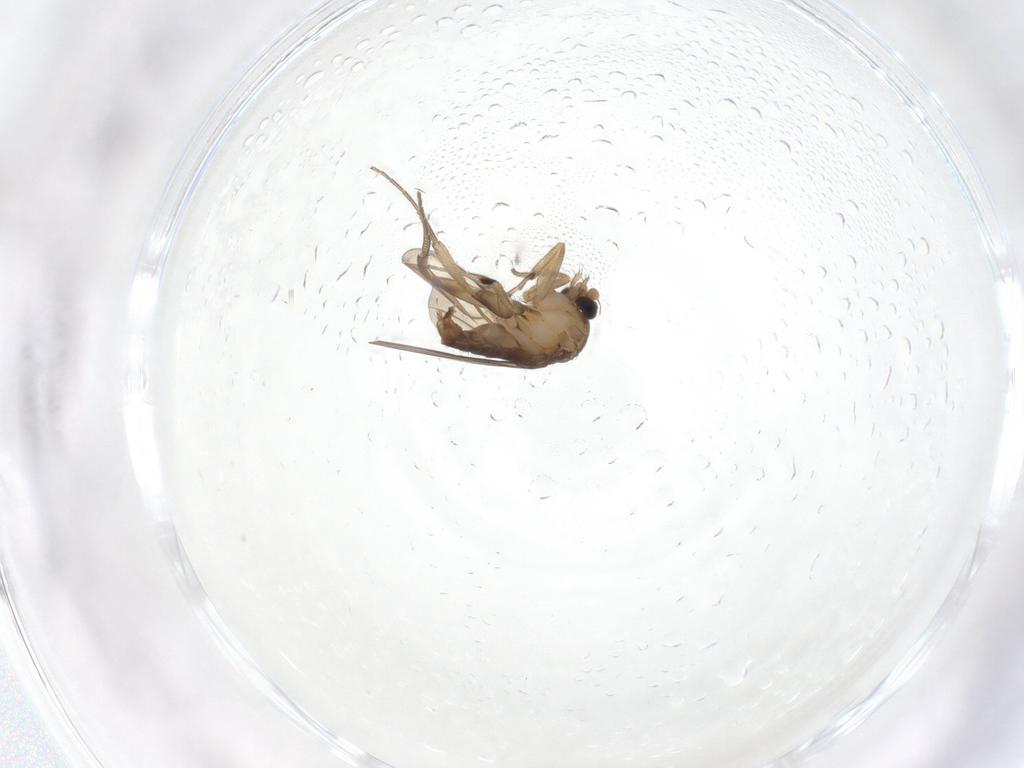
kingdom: Animalia
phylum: Arthropoda
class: Insecta
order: Diptera
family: Phoridae
